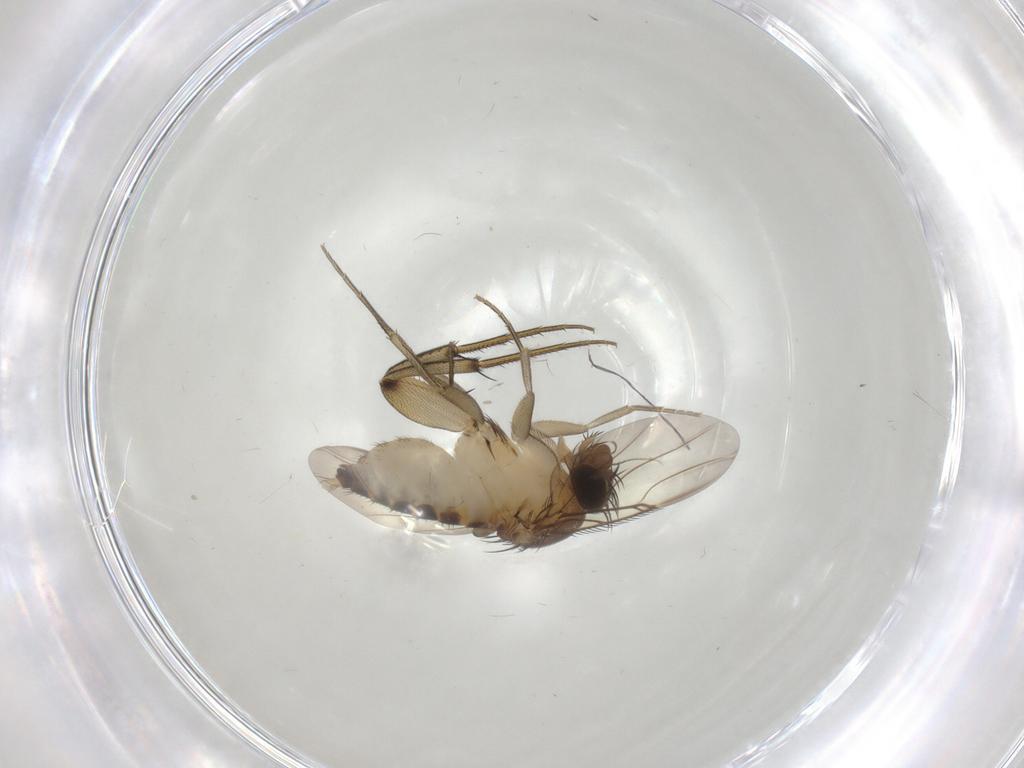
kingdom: Animalia
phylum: Arthropoda
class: Insecta
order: Diptera
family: Phoridae
